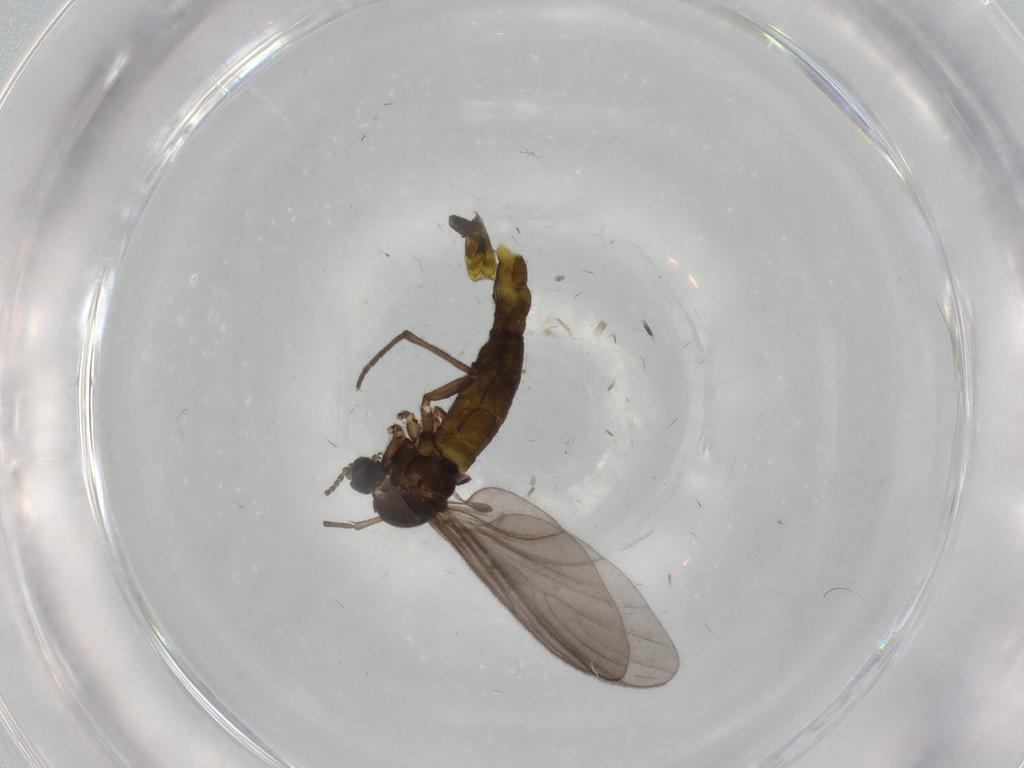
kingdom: Animalia
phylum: Arthropoda
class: Insecta
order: Diptera
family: Sciaridae
